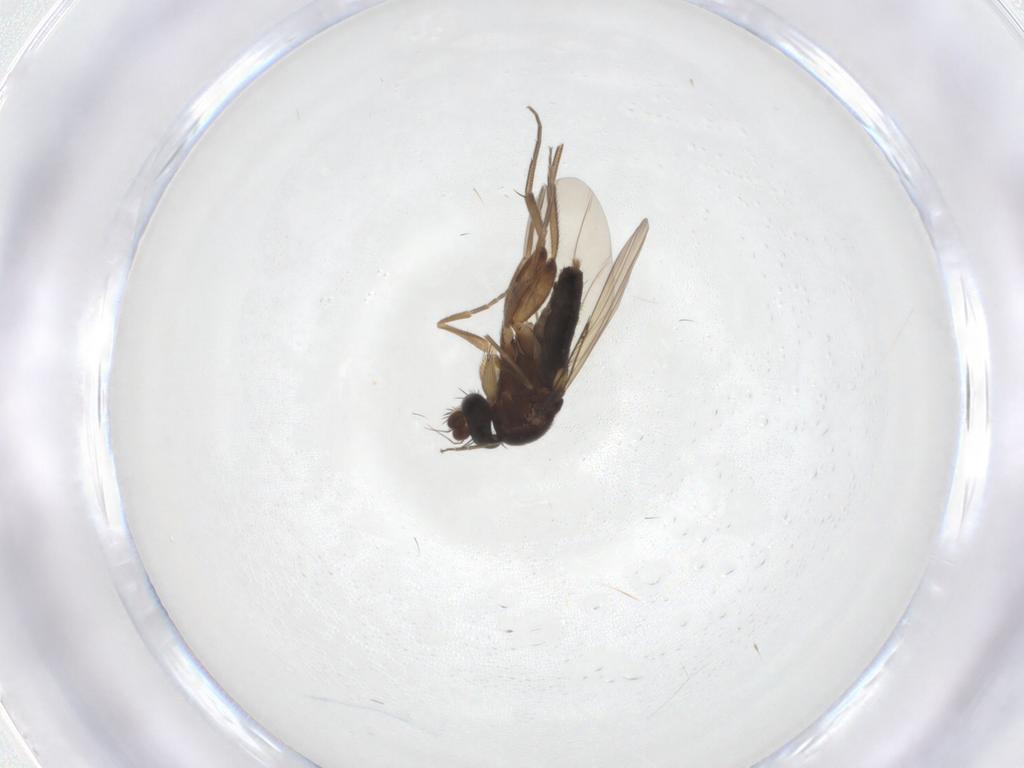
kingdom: Animalia
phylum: Arthropoda
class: Insecta
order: Diptera
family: Phoridae
